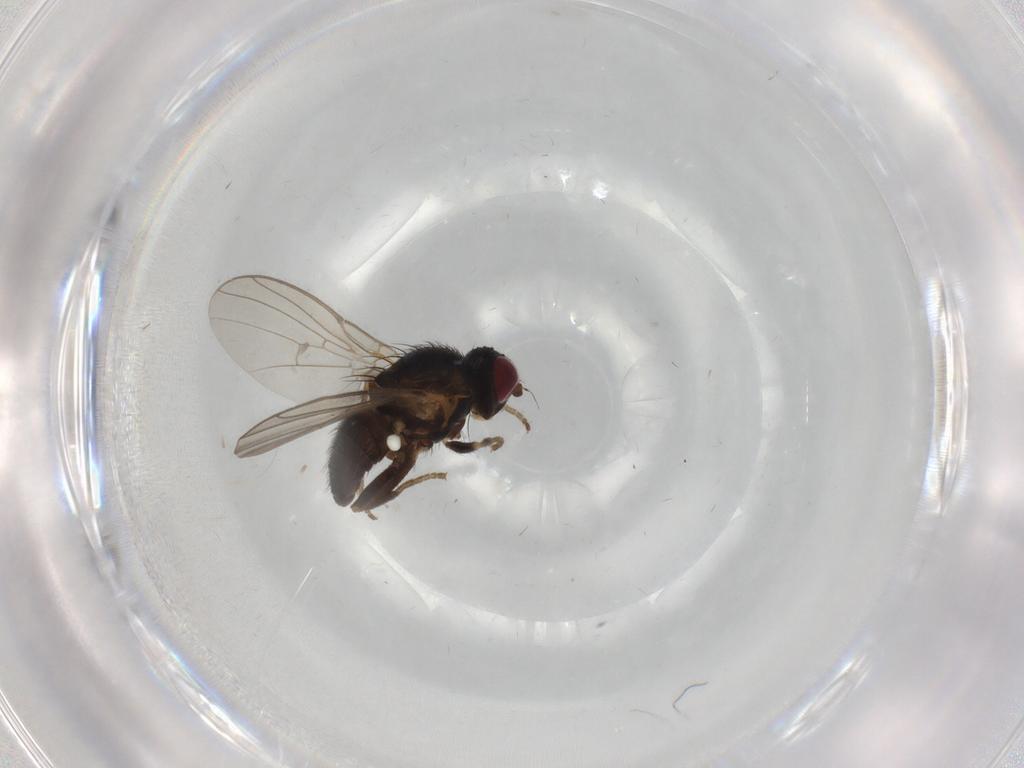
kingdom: Animalia
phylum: Arthropoda
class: Insecta
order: Diptera
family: Agromyzidae
